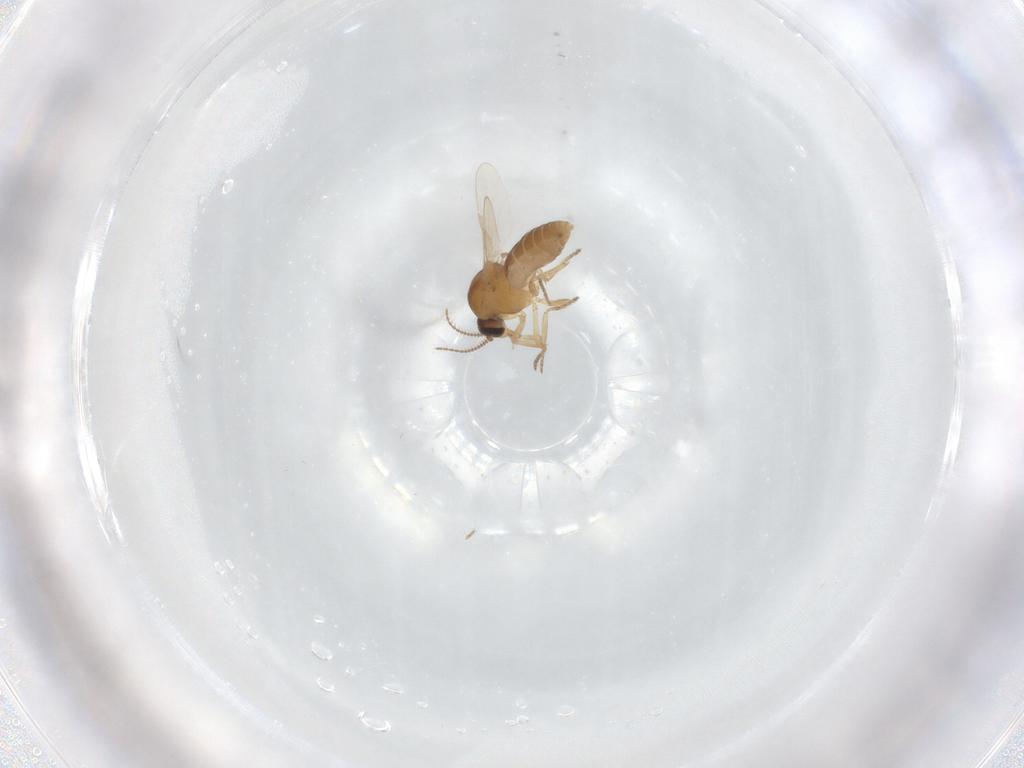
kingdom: Animalia
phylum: Arthropoda
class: Insecta
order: Diptera
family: Ceratopogonidae
